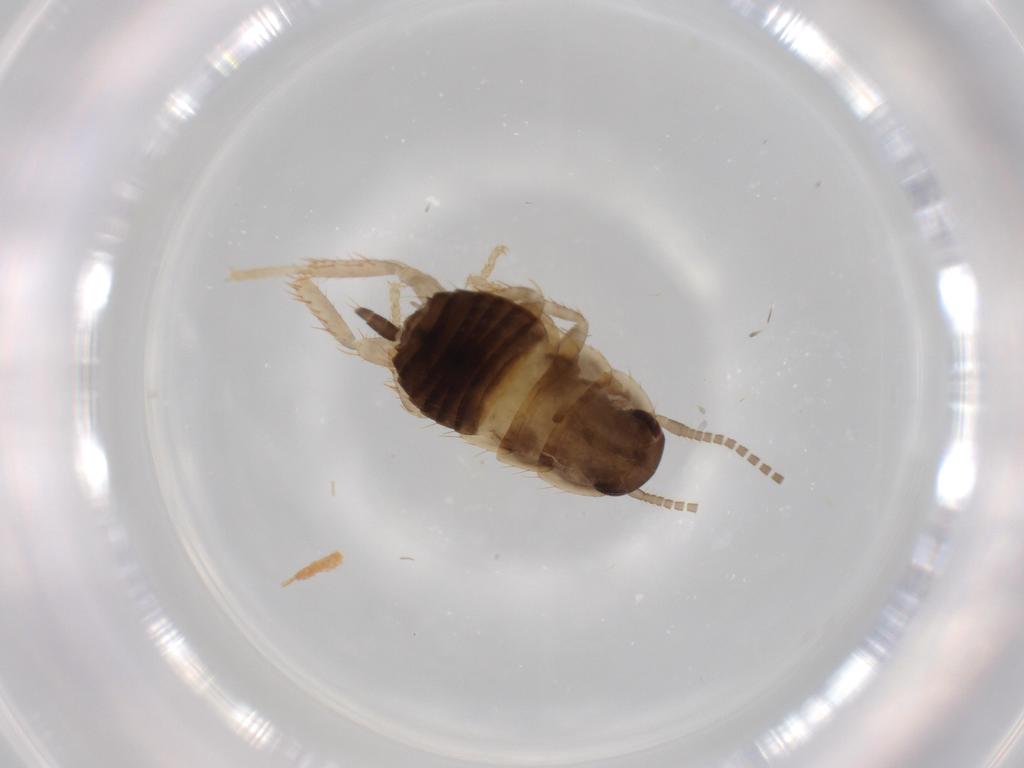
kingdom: Animalia
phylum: Arthropoda
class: Insecta
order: Blattodea
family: Ectobiidae
